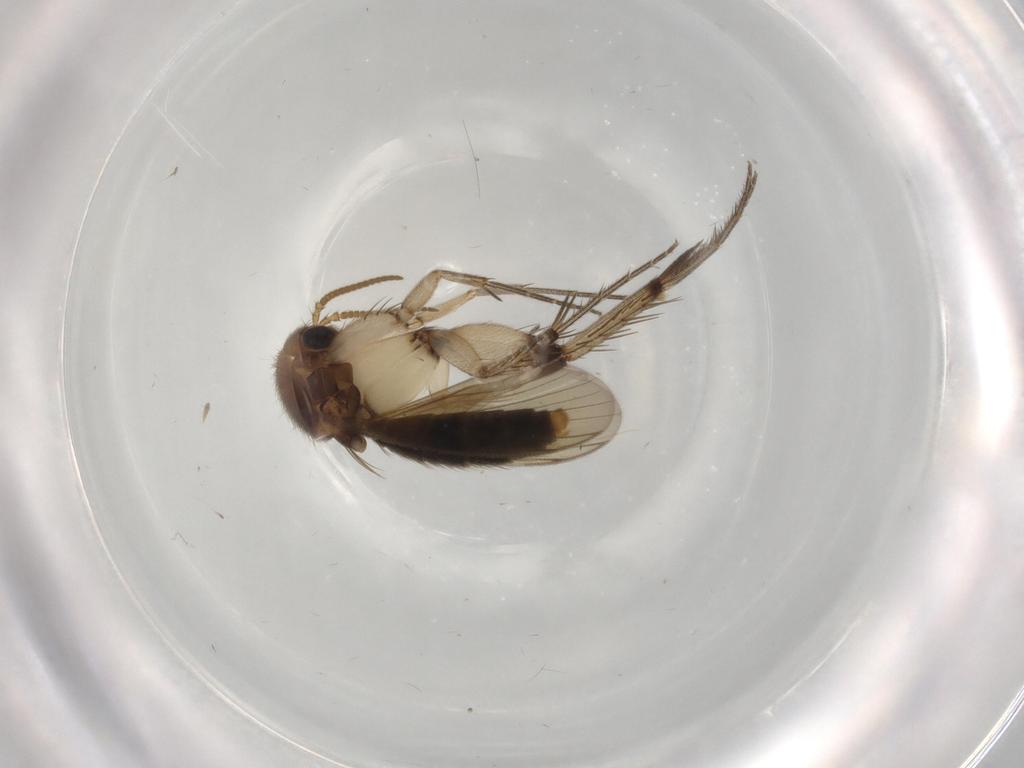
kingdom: Animalia
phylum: Arthropoda
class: Insecta
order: Diptera
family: Mycetophilidae
